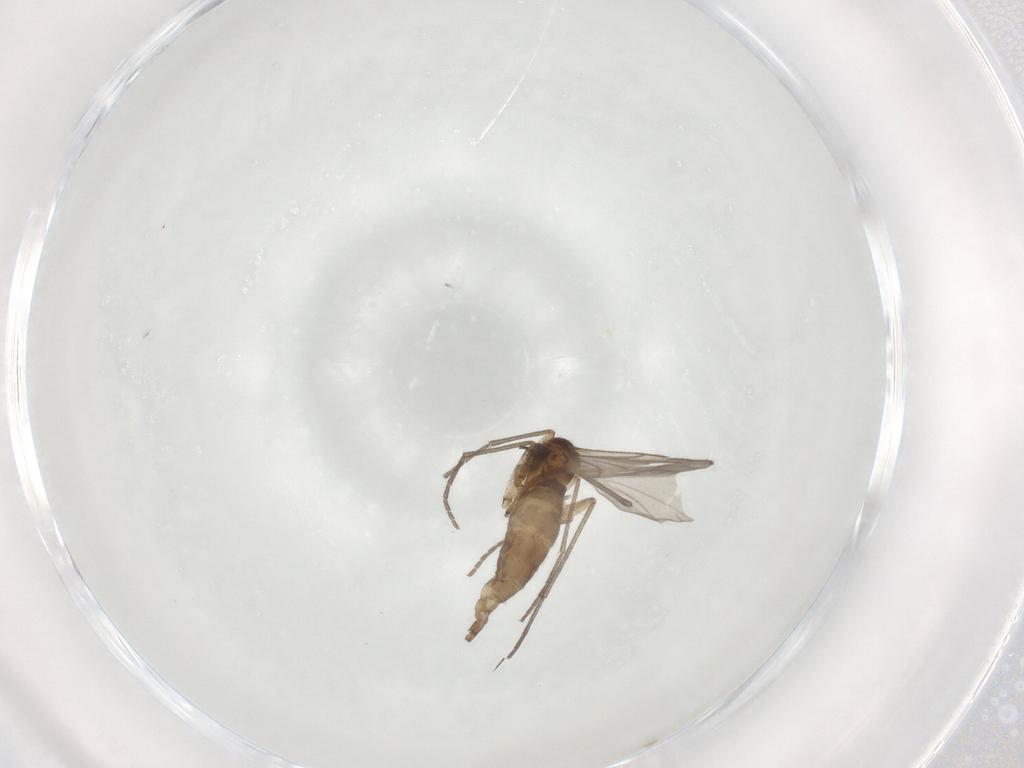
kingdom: Animalia
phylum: Arthropoda
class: Insecta
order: Diptera
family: Sciaridae
